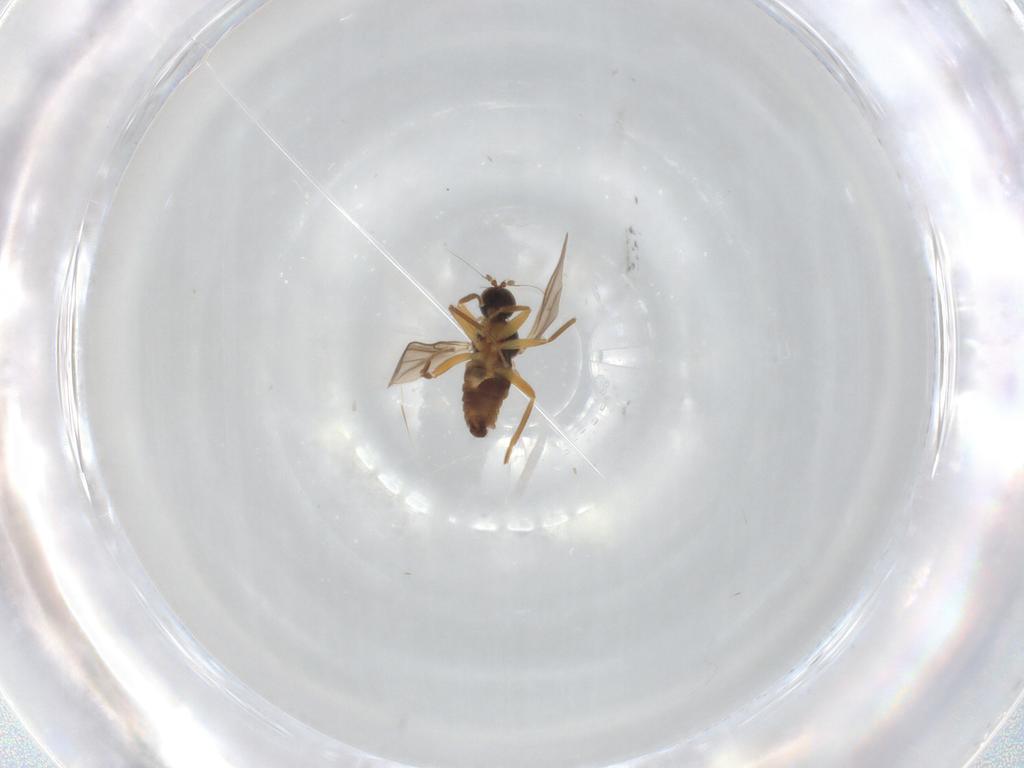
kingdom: Animalia
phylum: Arthropoda
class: Insecta
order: Diptera
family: Hybotidae
